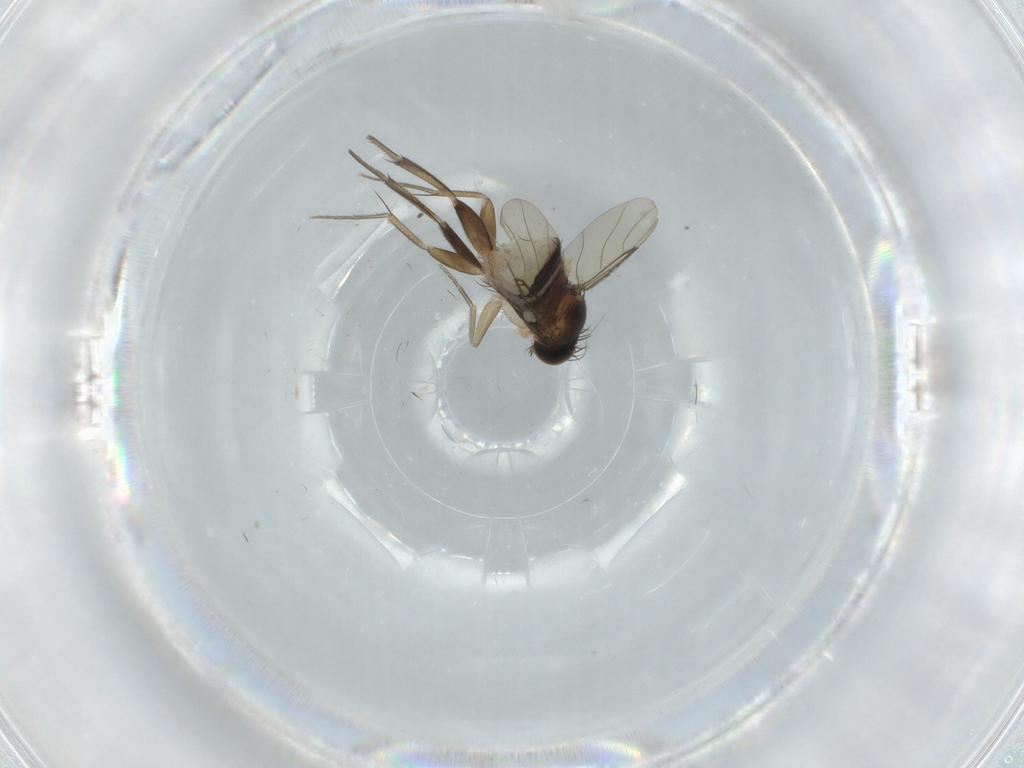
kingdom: Animalia
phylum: Arthropoda
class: Insecta
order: Diptera
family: Phoridae
